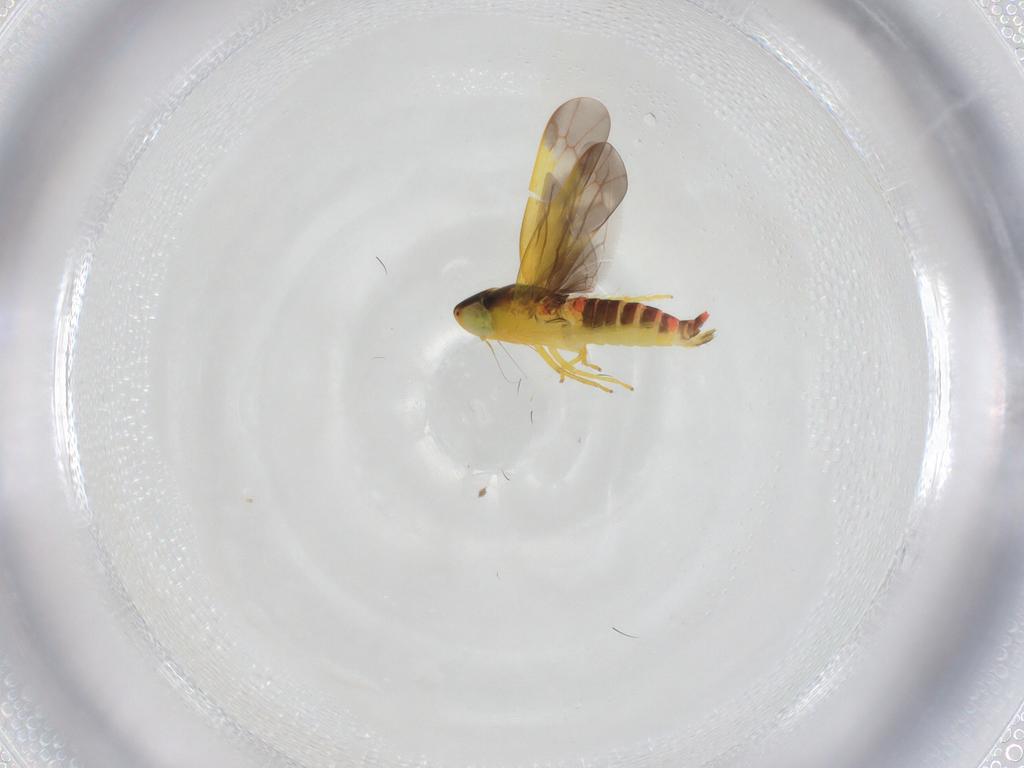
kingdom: Animalia
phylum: Arthropoda
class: Insecta
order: Hemiptera
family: Cicadellidae
